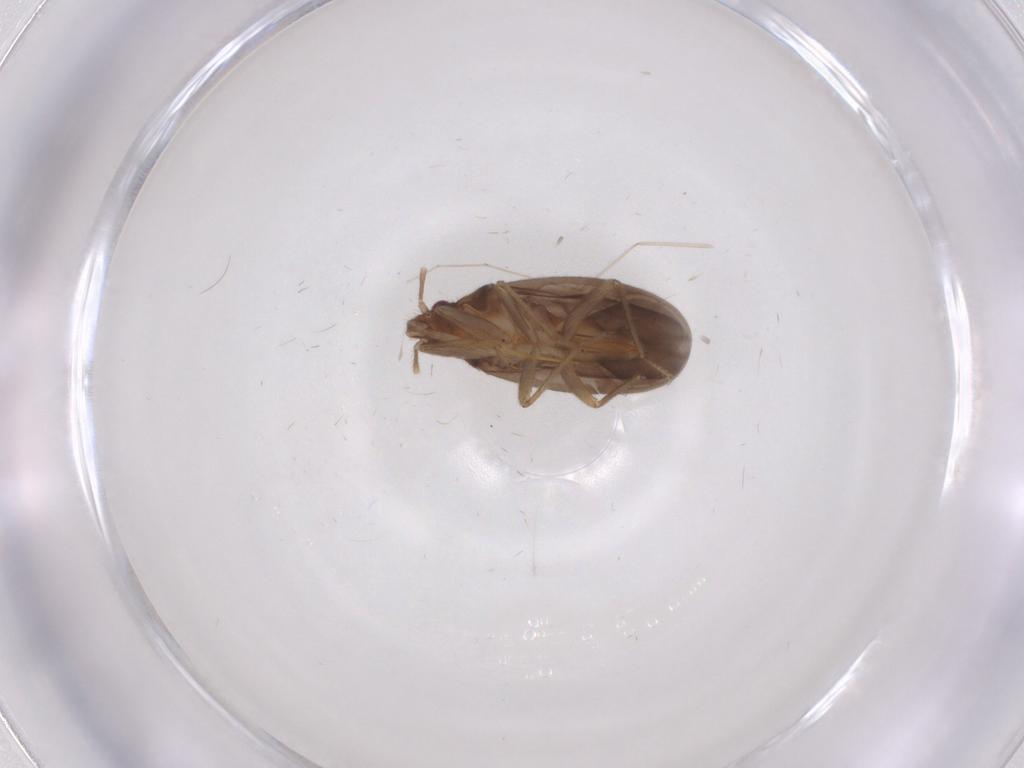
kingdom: Animalia
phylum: Arthropoda
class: Insecta
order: Hemiptera
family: Ceratocombidae
